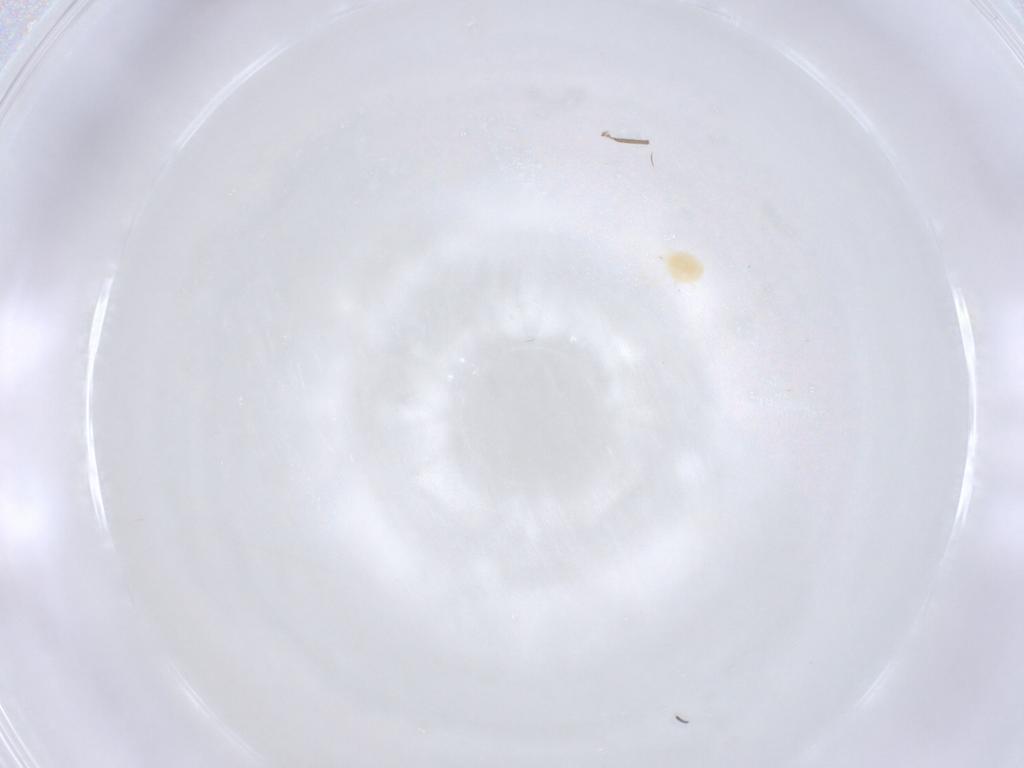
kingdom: Animalia
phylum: Arthropoda
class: Arachnida
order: Trombidiformes
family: Tetranychidae
